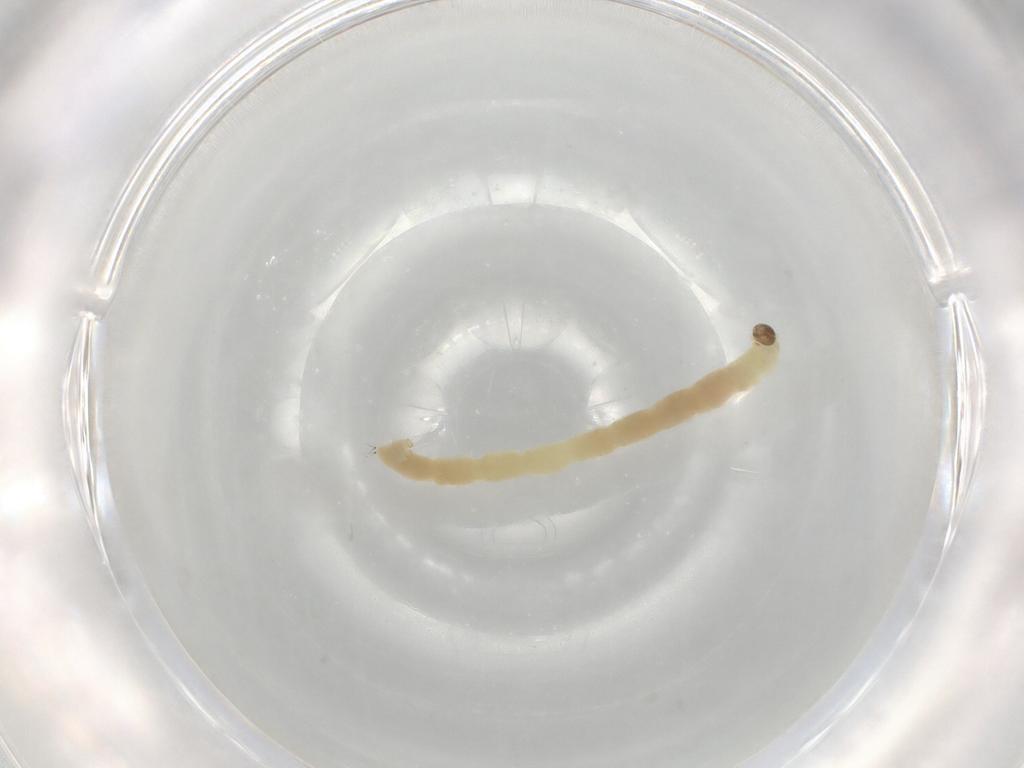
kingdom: Animalia
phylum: Arthropoda
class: Insecta
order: Diptera
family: Chironomidae
